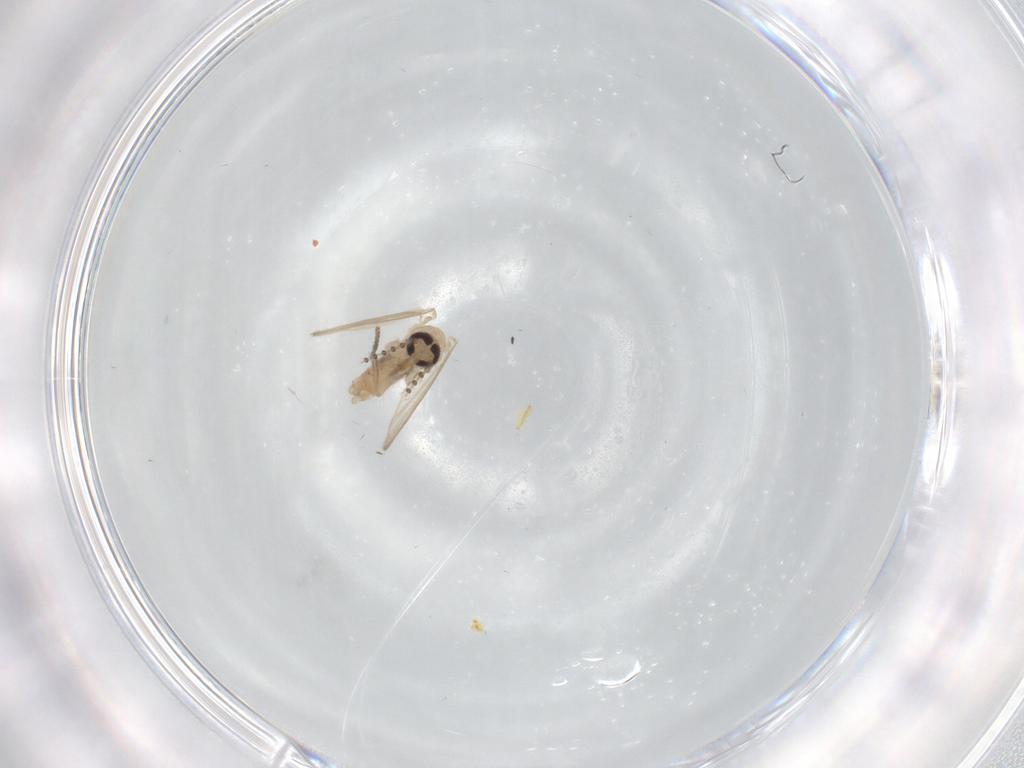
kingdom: Animalia
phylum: Arthropoda
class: Insecta
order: Diptera
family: Psychodidae
